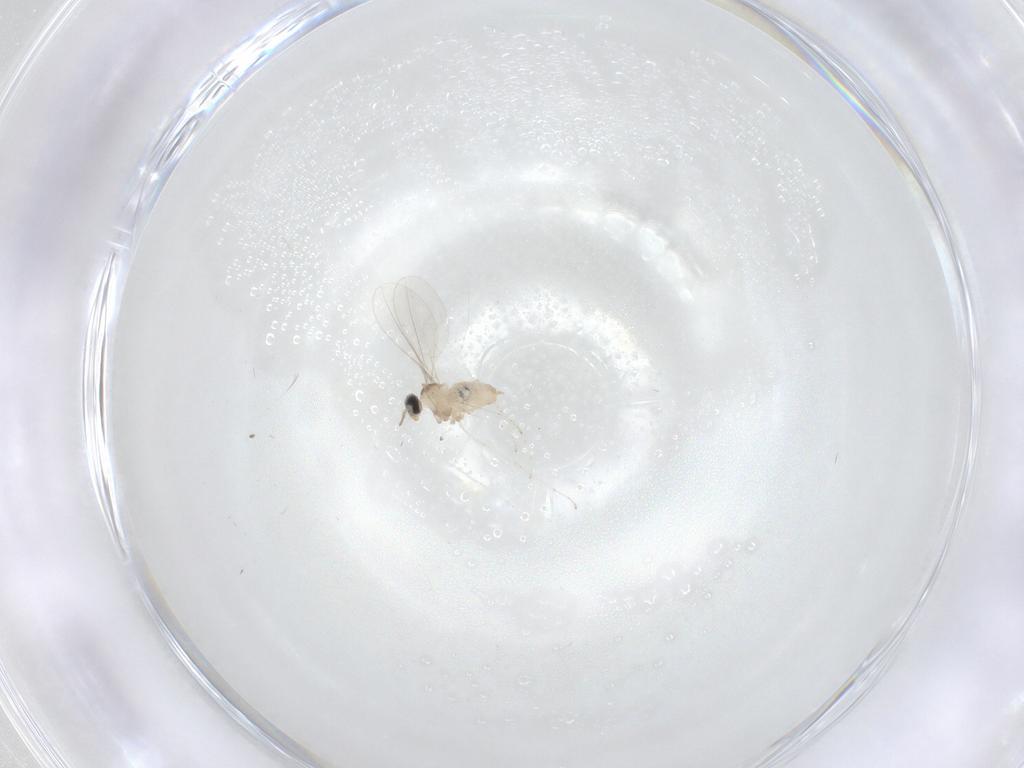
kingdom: Animalia
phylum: Arthropoda
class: Insecta
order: Diptera
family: Cecidomyiidae
